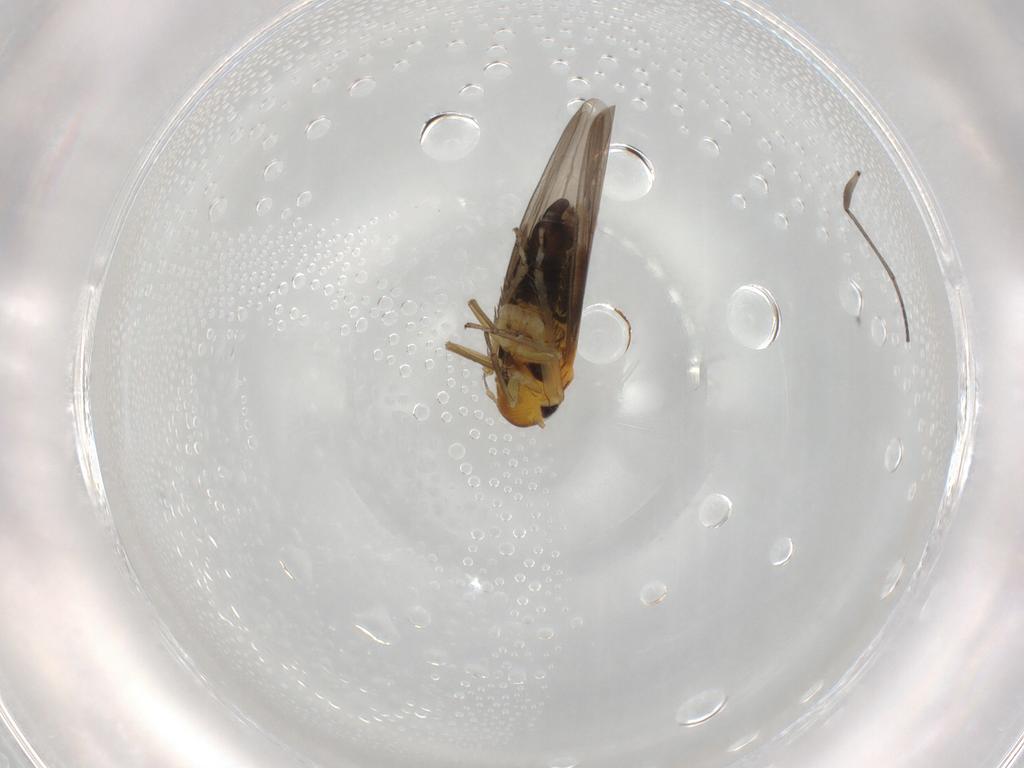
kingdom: Animalia
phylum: Arthropoda
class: Insecta
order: Hemiptera
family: Cicadellidae
